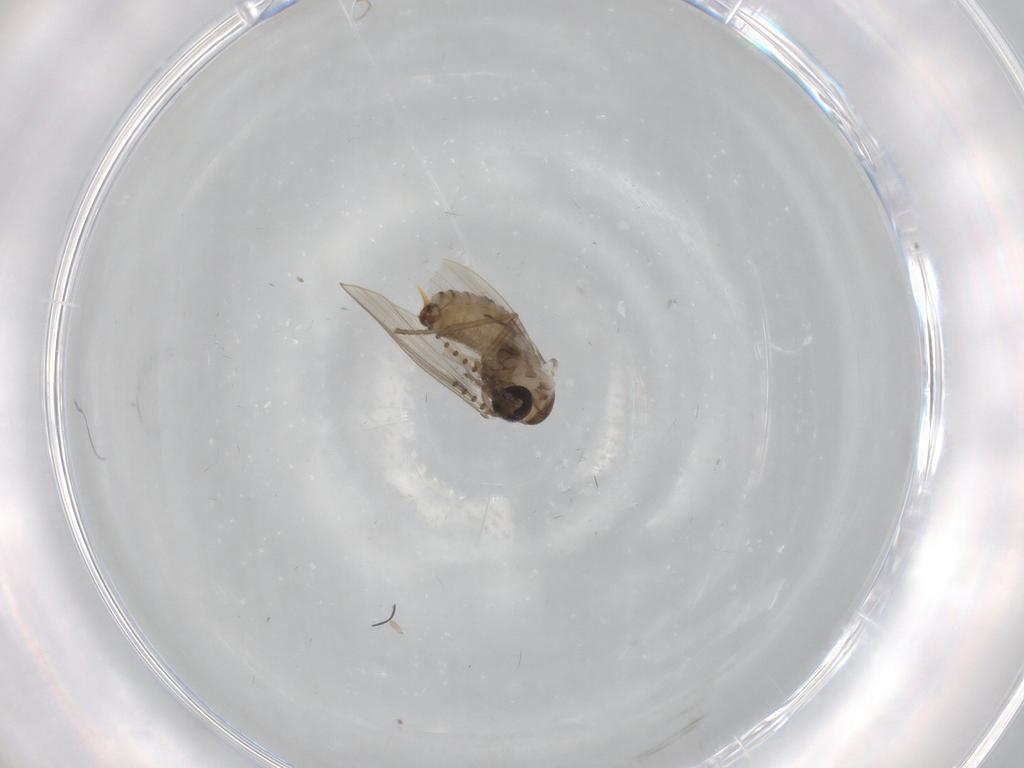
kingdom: Animalia
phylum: Arthropoda
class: Insecta
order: Diptera
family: Psychodidae
